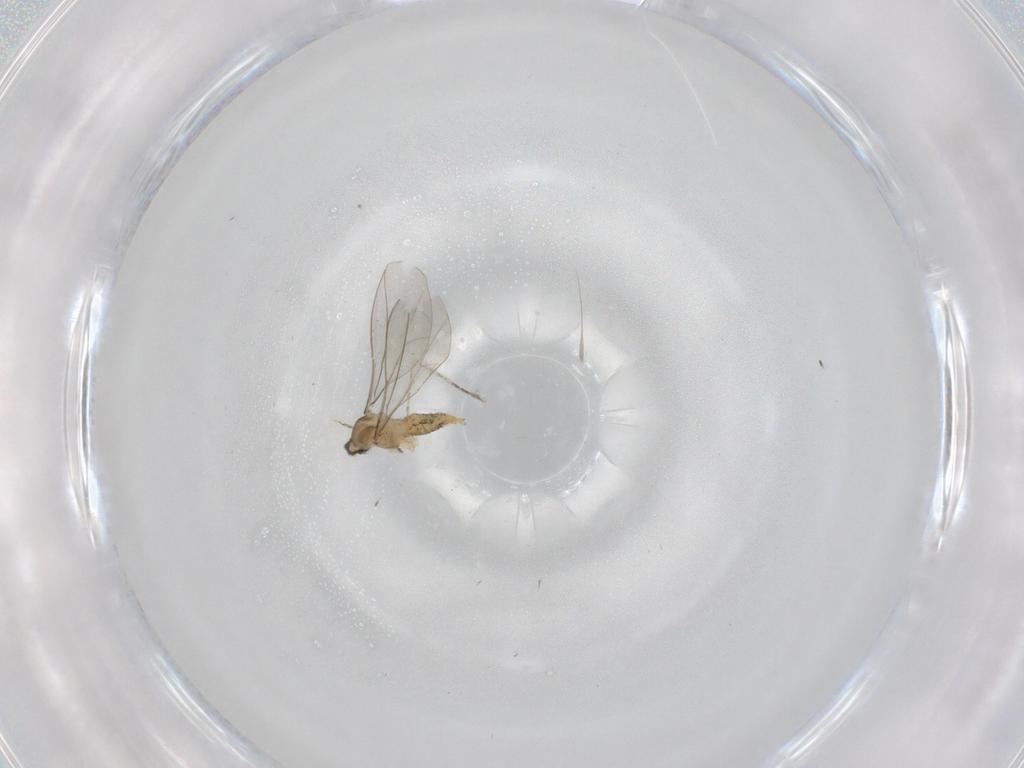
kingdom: Animalia
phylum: Arthropoda
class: Insecta
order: Diptera
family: Cecidomyiidae
